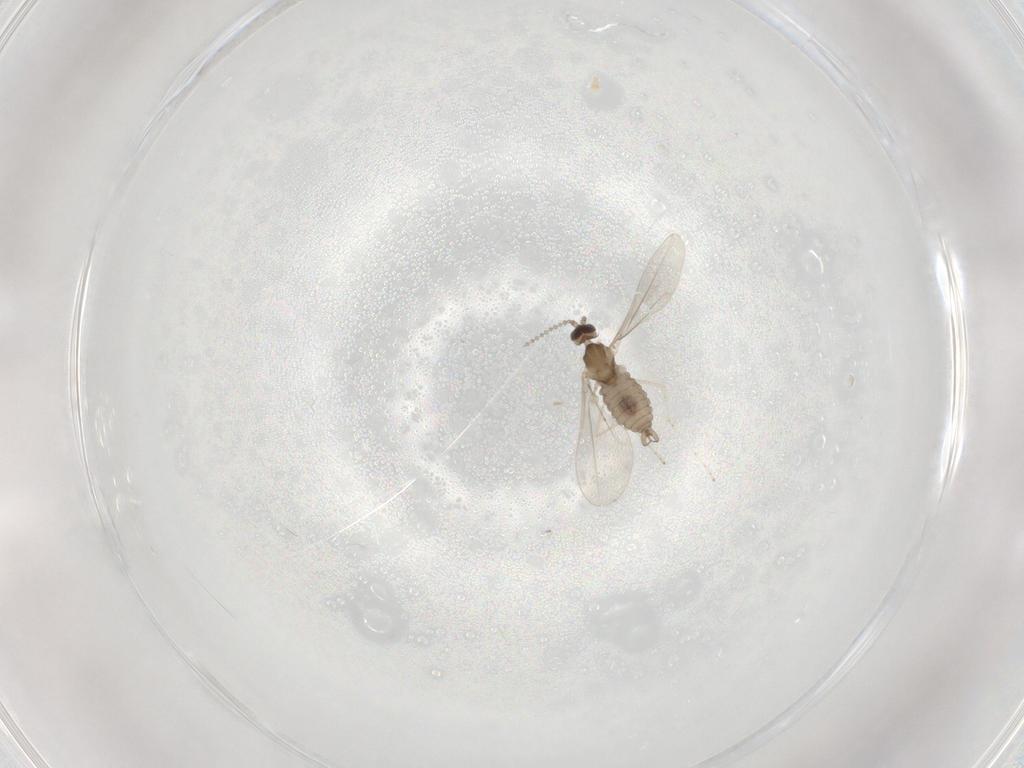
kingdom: Animalia
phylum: Arthropoda
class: Insecta
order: Diptera
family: Cecidomyiidae
